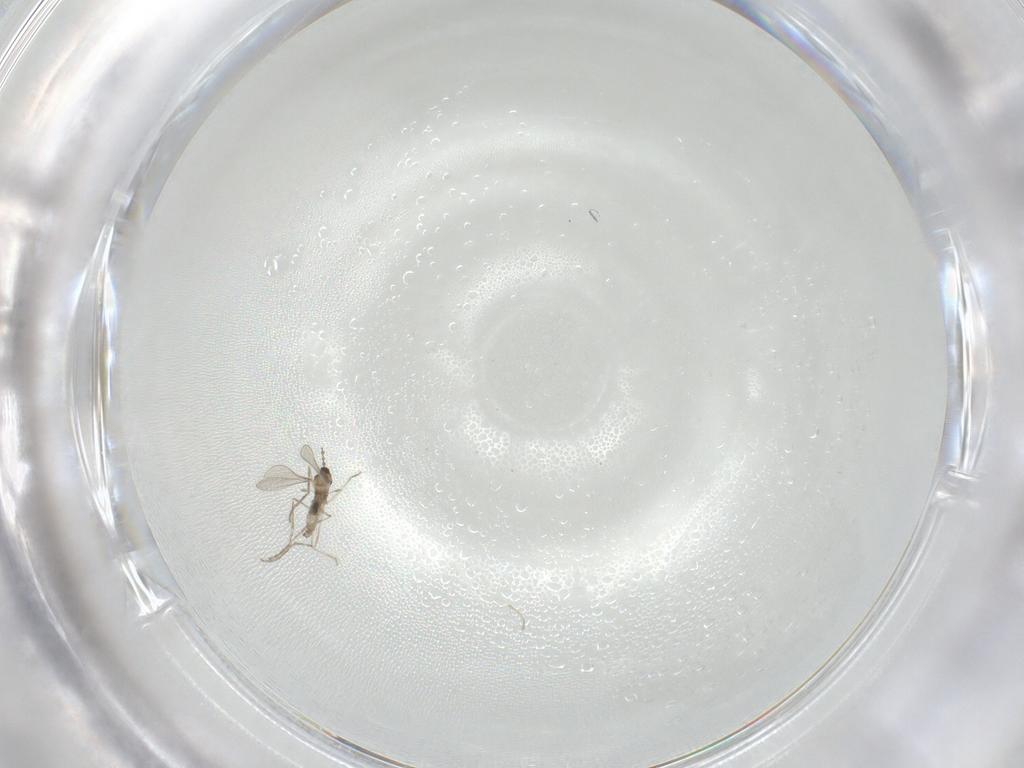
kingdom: Animalia
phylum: Arthropoda
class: Insecta
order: Diptera
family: Cecidomyiidae
